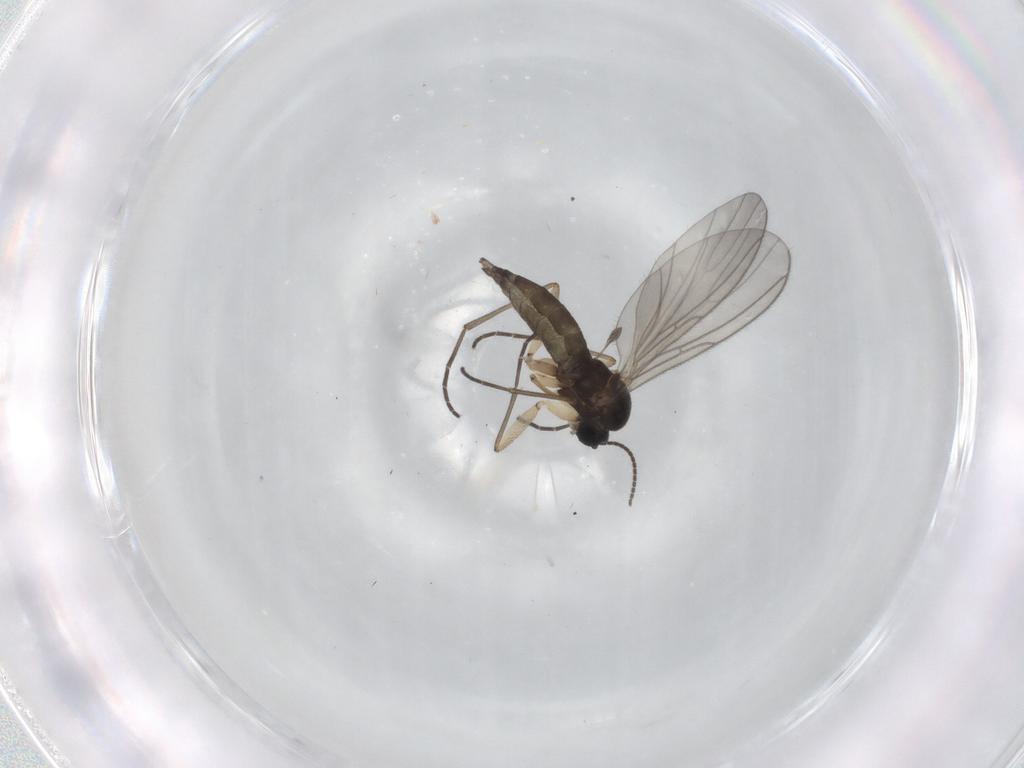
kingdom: Animalia
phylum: Arthropoda
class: Insecta
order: Diptera
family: Sciaridae
